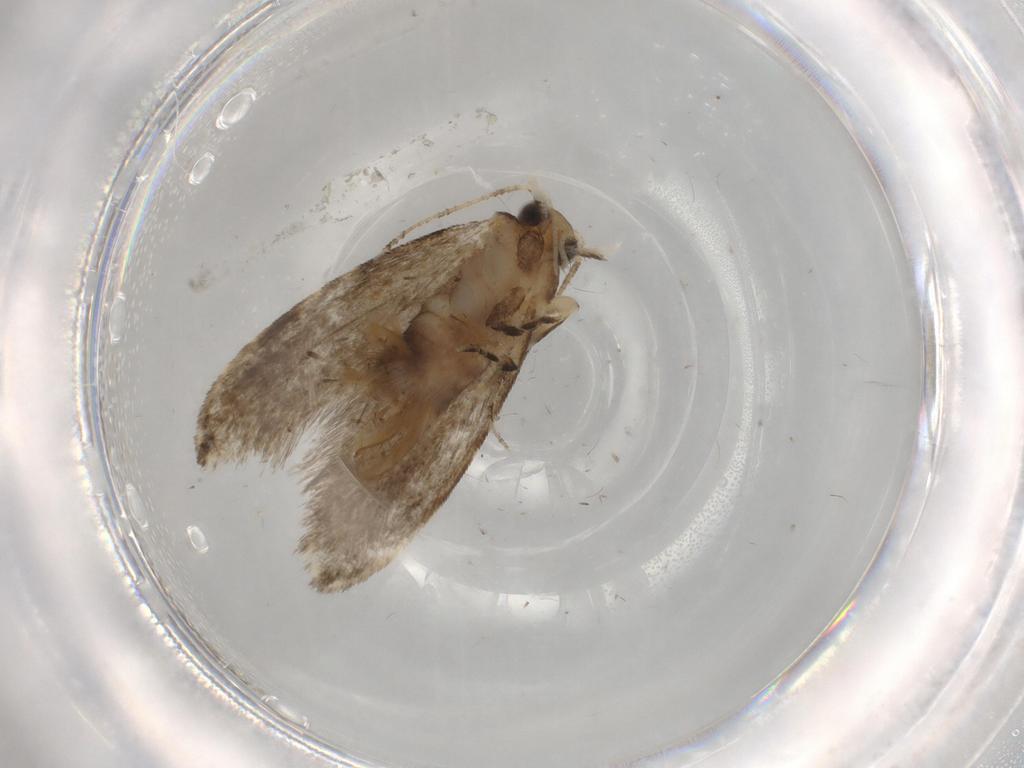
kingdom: Animalia
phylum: Arthropoda
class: Insecta
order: Lepidoptera
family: Tineidae
